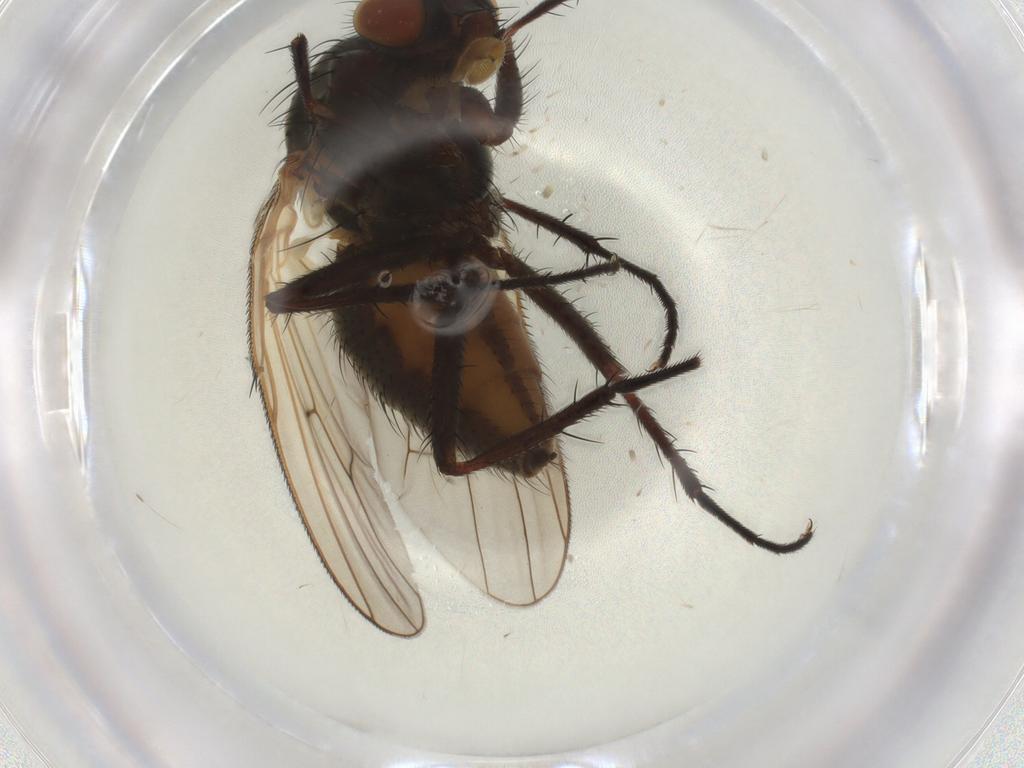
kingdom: Animalia
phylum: Arthropoda
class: Insecta
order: Diptera
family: Anthomyiidae
